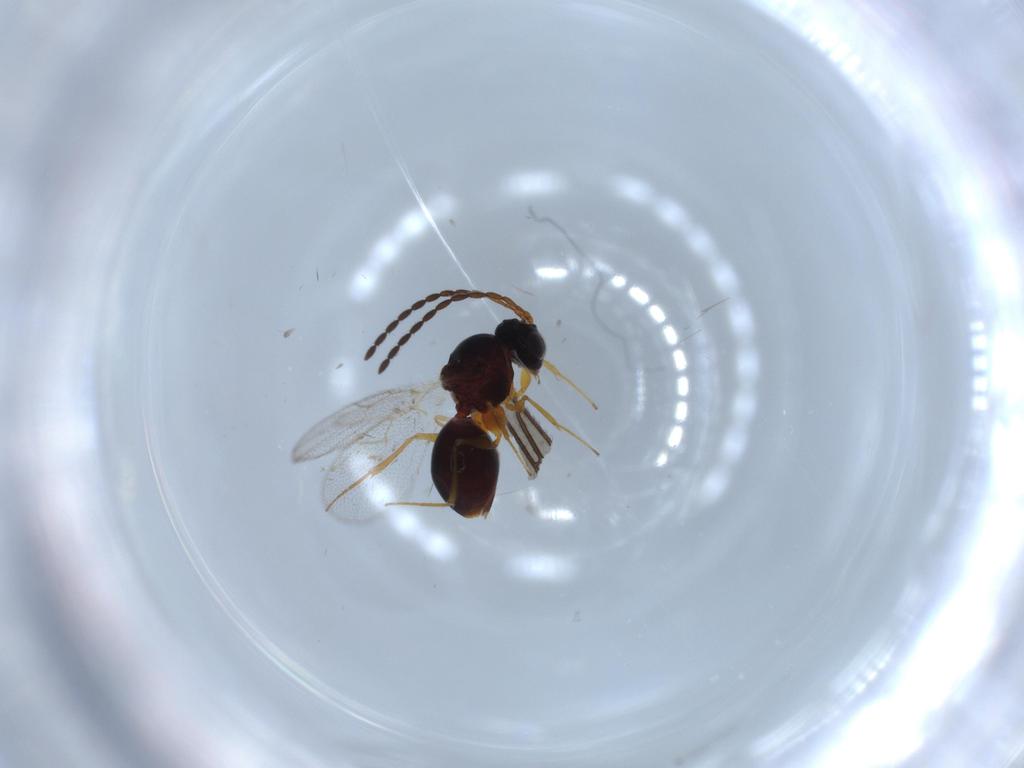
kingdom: Animalia
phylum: Arthropoda
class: Insecta
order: Hymenoptera
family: Figitidae
